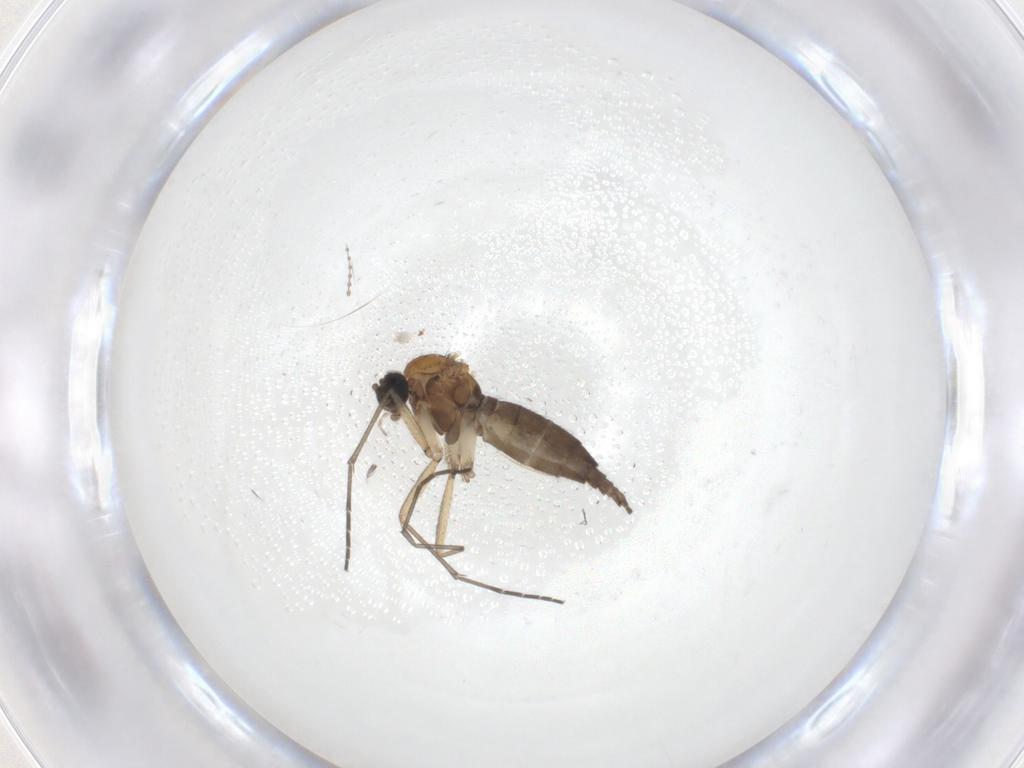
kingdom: Animalia
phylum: Arthropoda
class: Insecta
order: Diptera
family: Sciaridae
